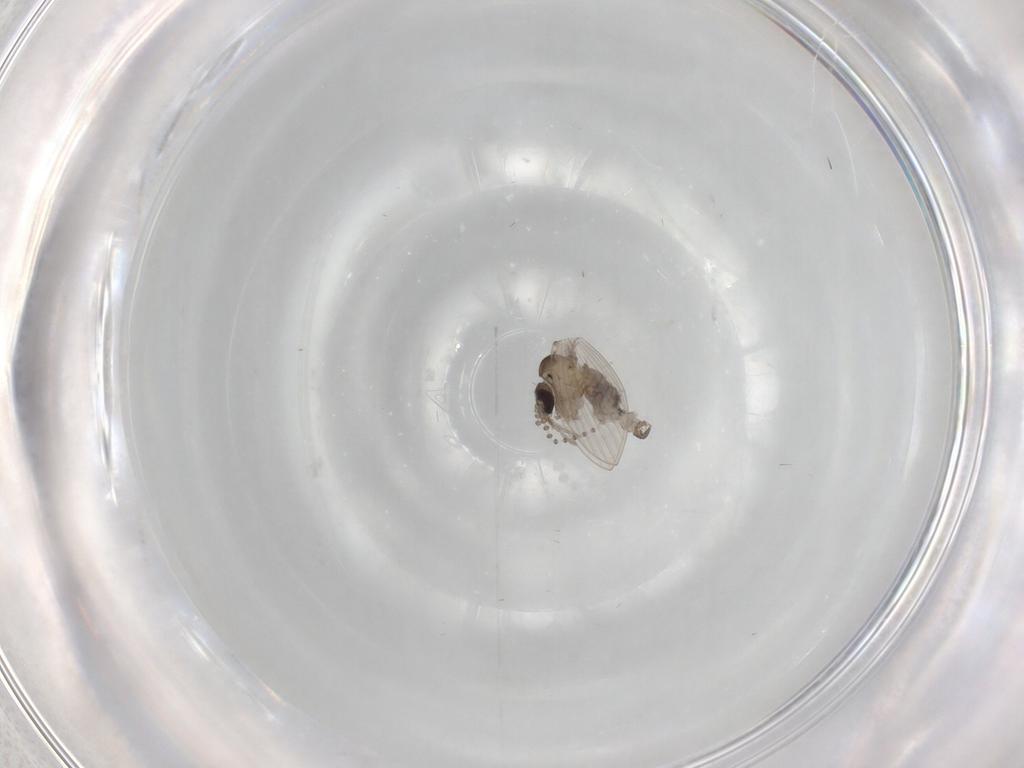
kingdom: Animalia
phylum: Arthropoda
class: Insecta
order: Diptera
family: Psychodidae
